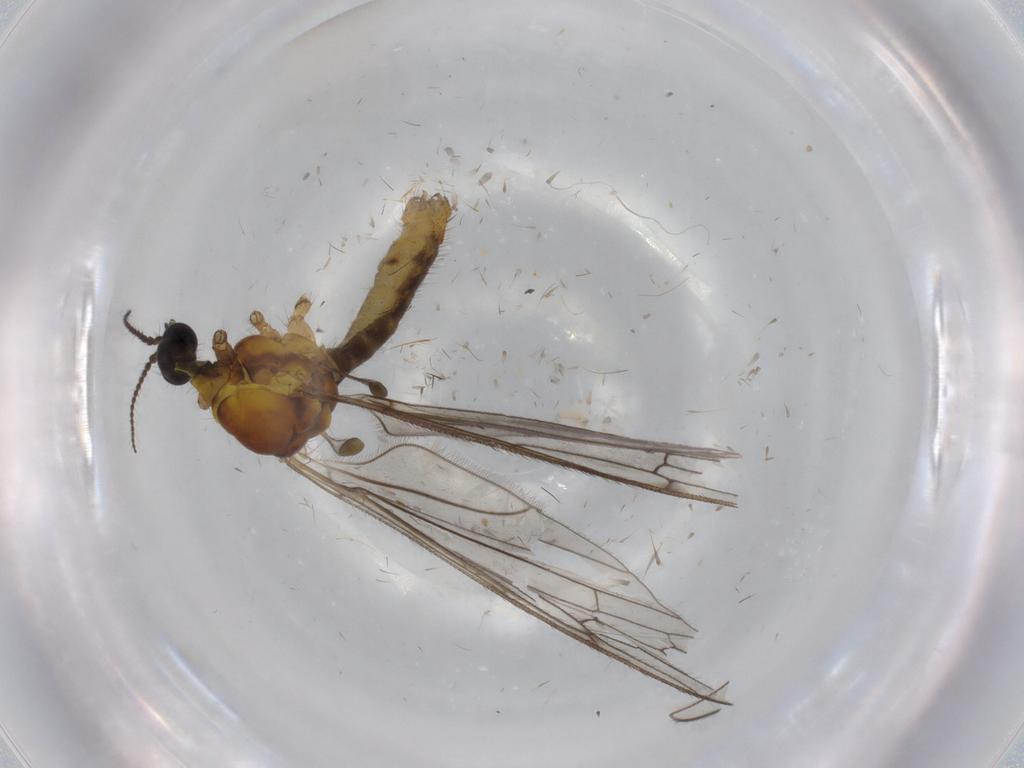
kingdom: Animalia
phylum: Arthropoda
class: Insecta
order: Diptera
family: Limoniidae
